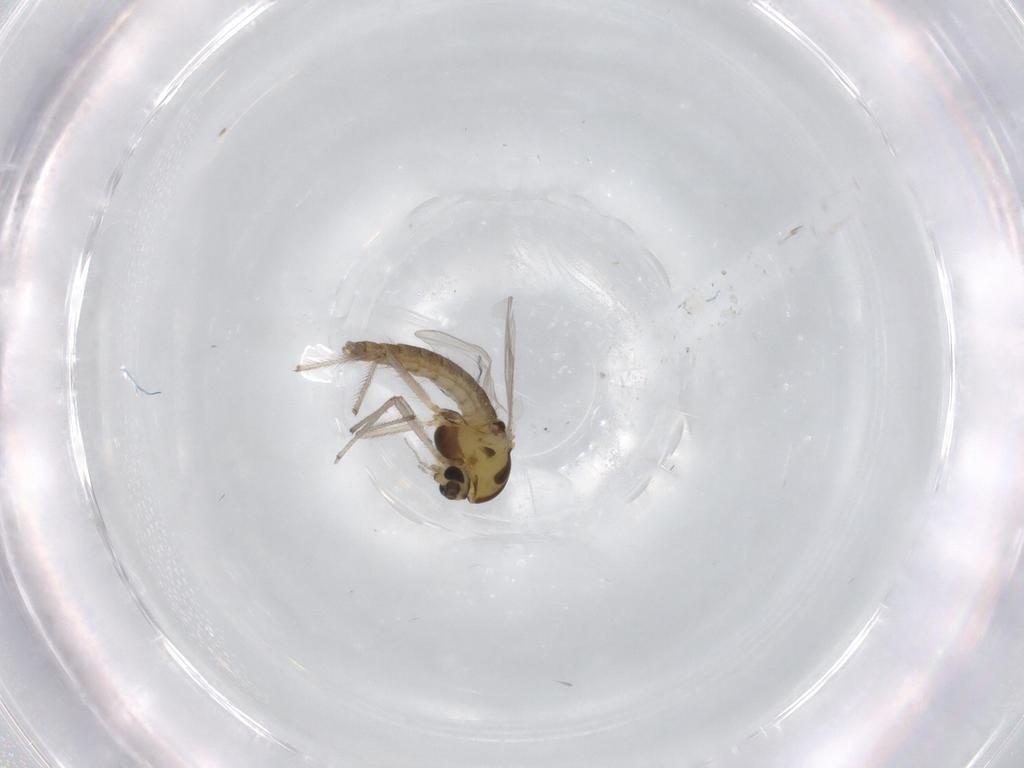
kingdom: Animalia
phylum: Arthropoda
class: Insecta
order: Diptera
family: Chironomidae
